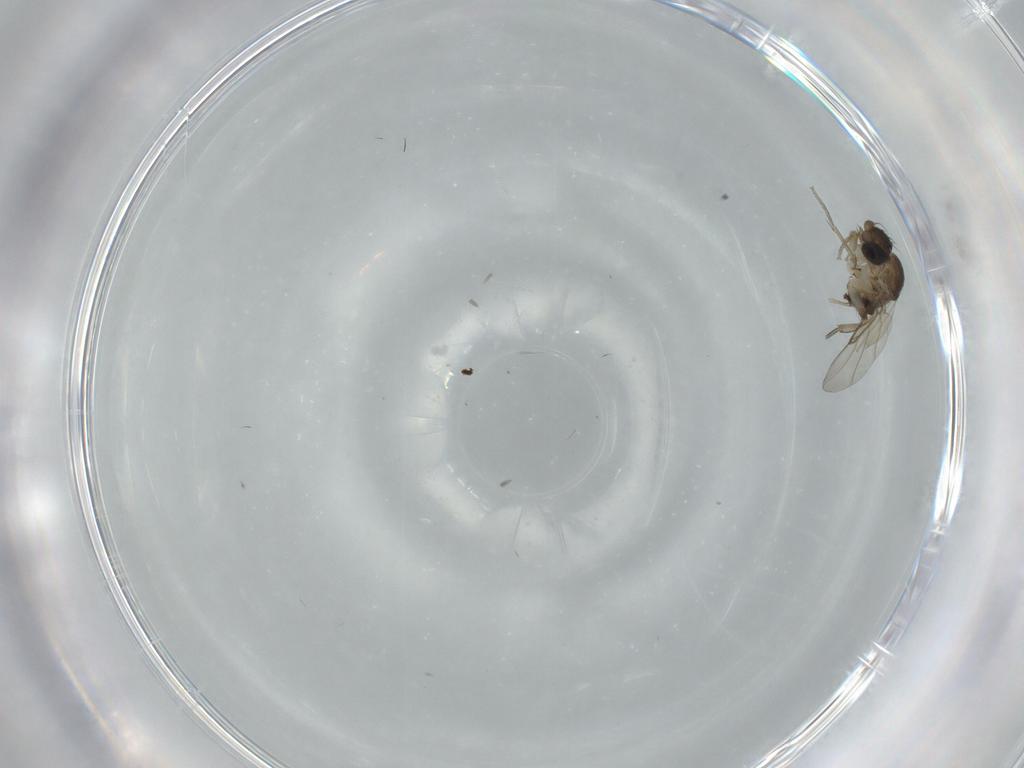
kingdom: Animalia
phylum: Arthropoda
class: Insecta
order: Diptera
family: Phoridae
